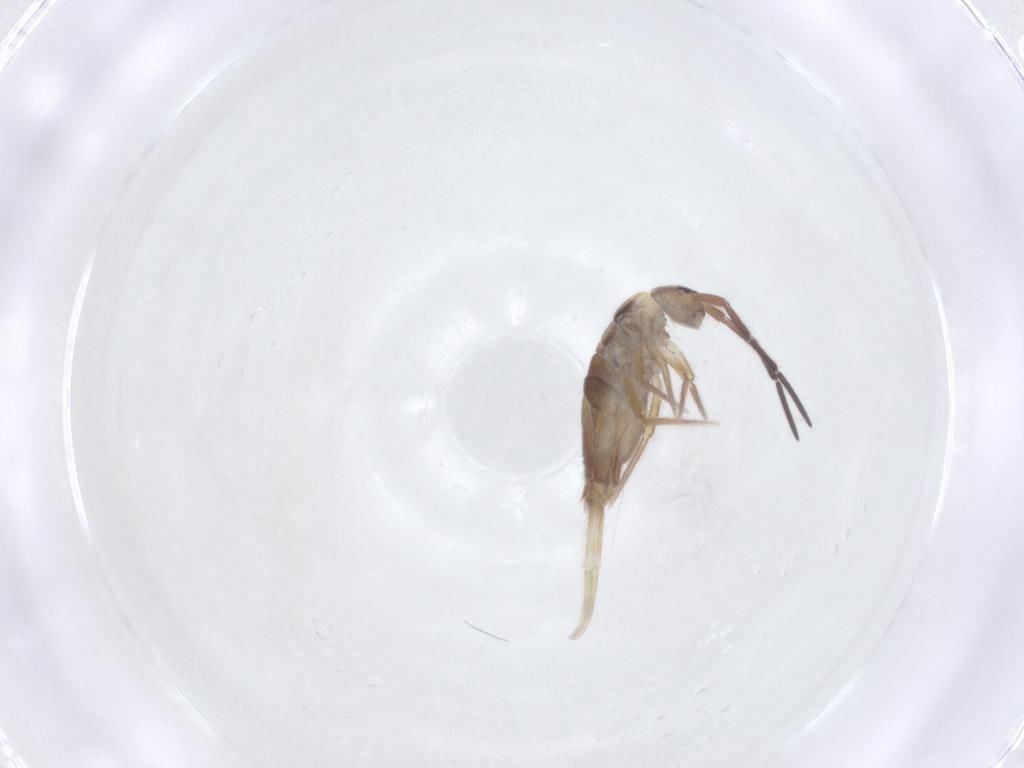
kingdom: Animalia
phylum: Arthropoda
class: Collembola
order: Entomobryomorpha
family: Entomobryidae
